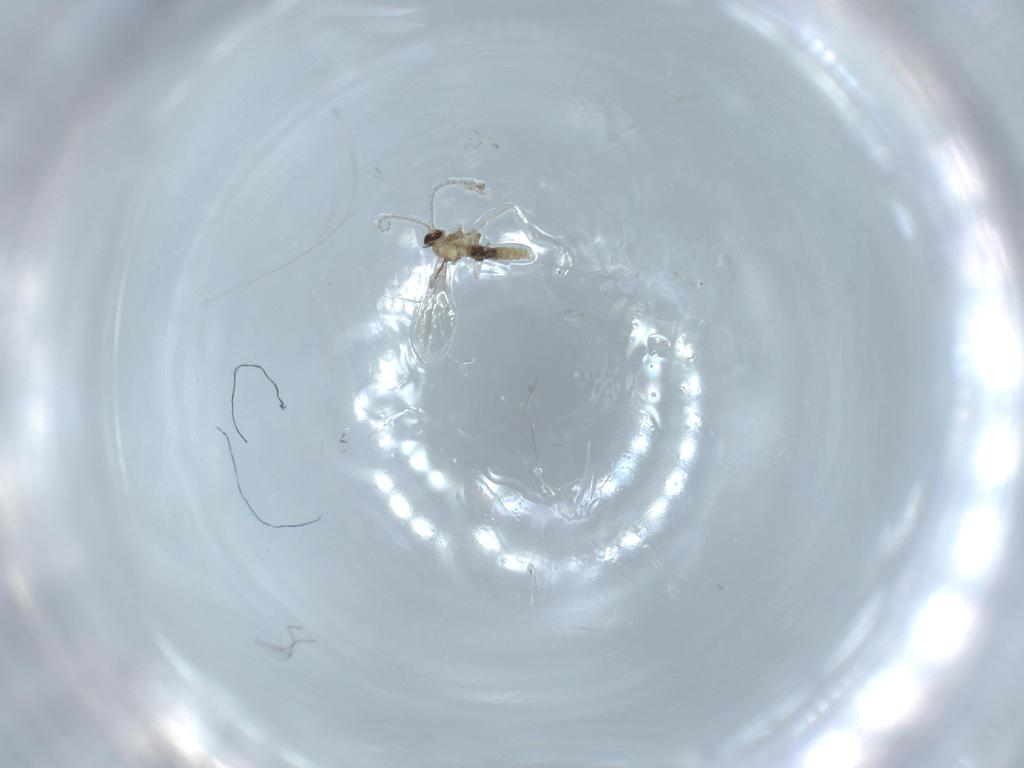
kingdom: Animalia
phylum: Arthropoda
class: Insecta
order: Diptera
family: Cecidomyiidae
